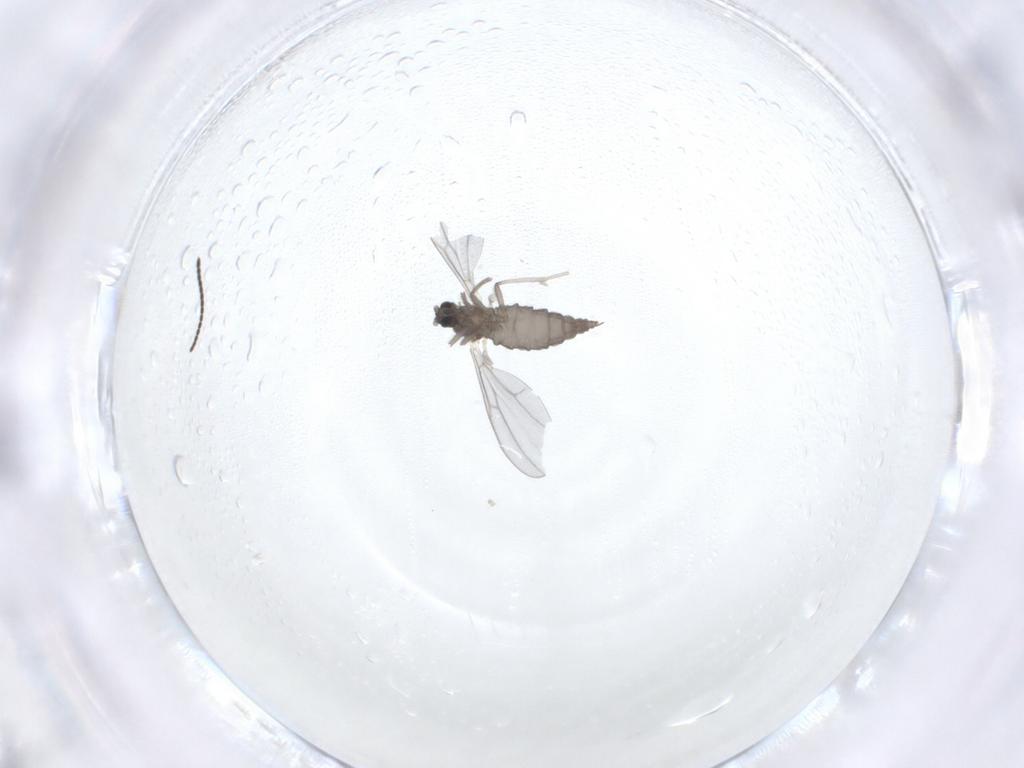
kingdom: Animalia
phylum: Arthropoda
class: Insecta
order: Diptera
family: Cecidomyiidae
